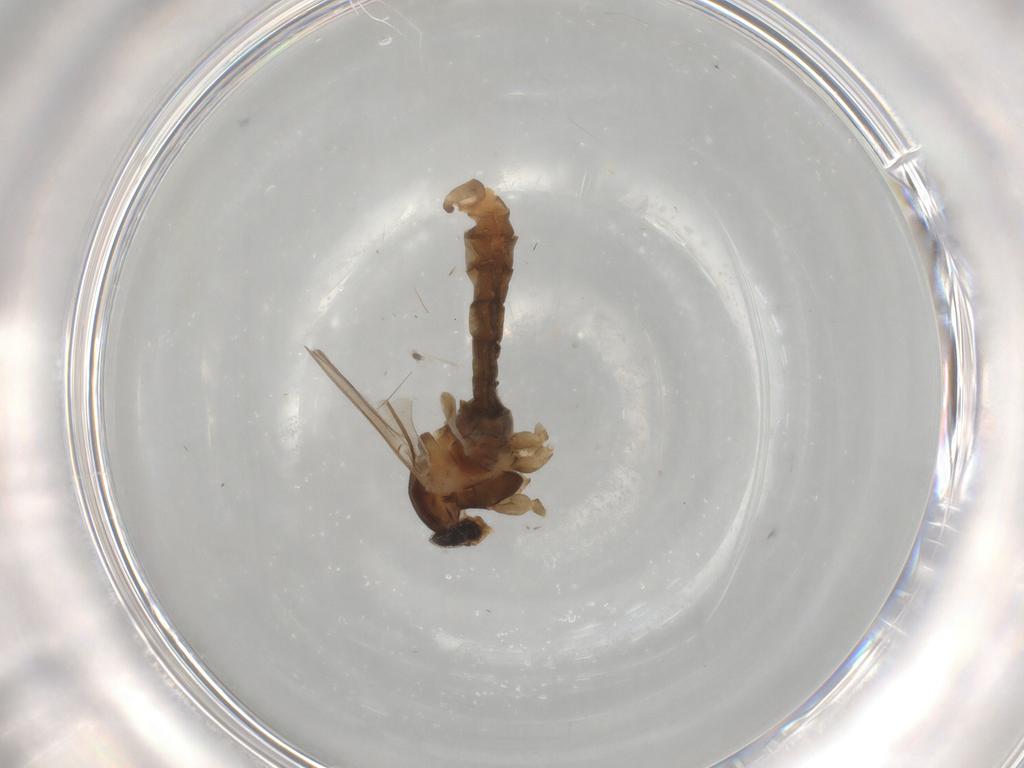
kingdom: Animalia
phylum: Arthropoda
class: Insecta
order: Diptera
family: Cecidomyiidae
